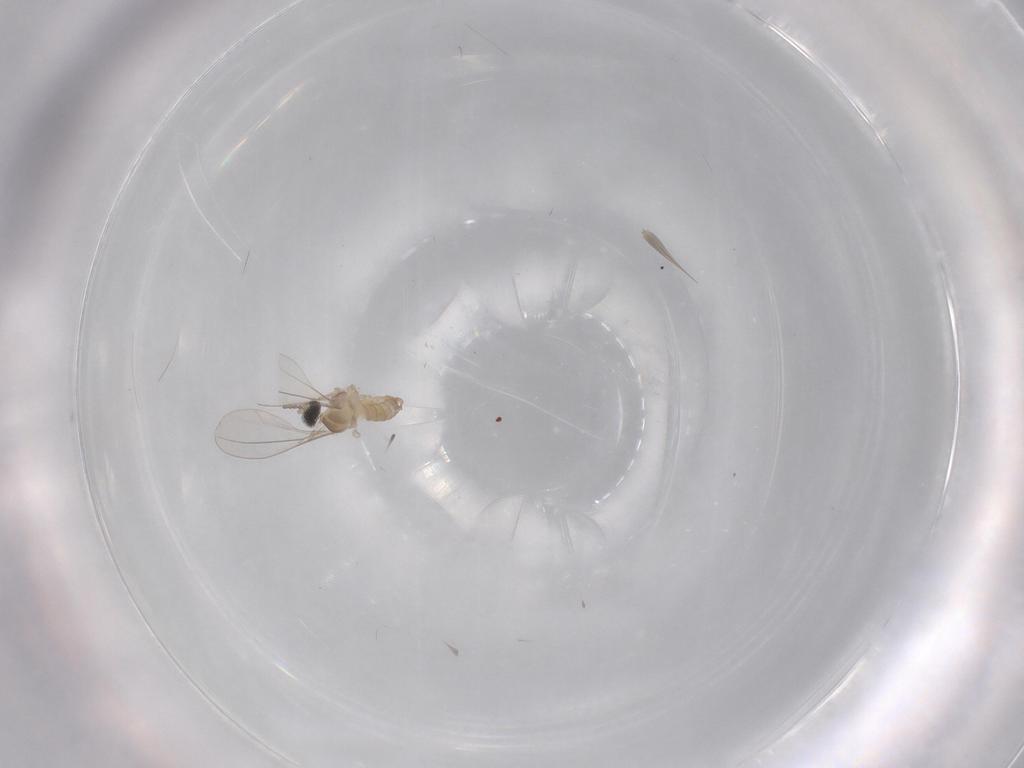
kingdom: Animalia
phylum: Arthropoda
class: Insecta
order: Diptera
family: Cecidomyiidae
